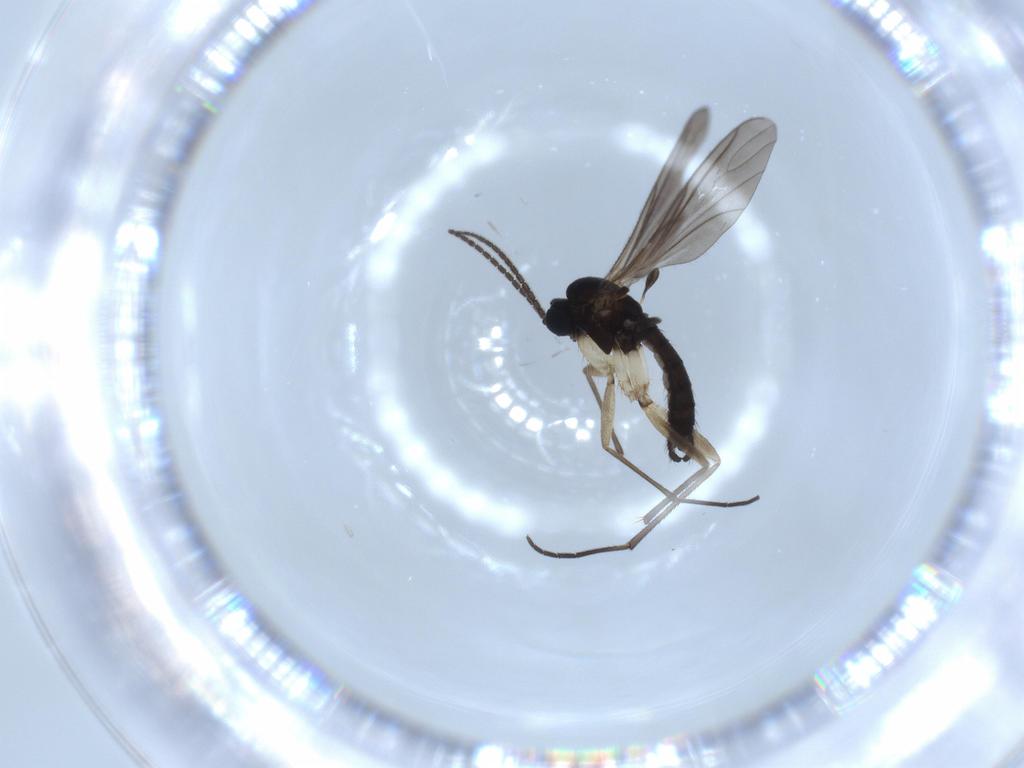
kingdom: Animalia
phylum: Arthropoda
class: Insecta
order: Diptera
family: Sciaridae
